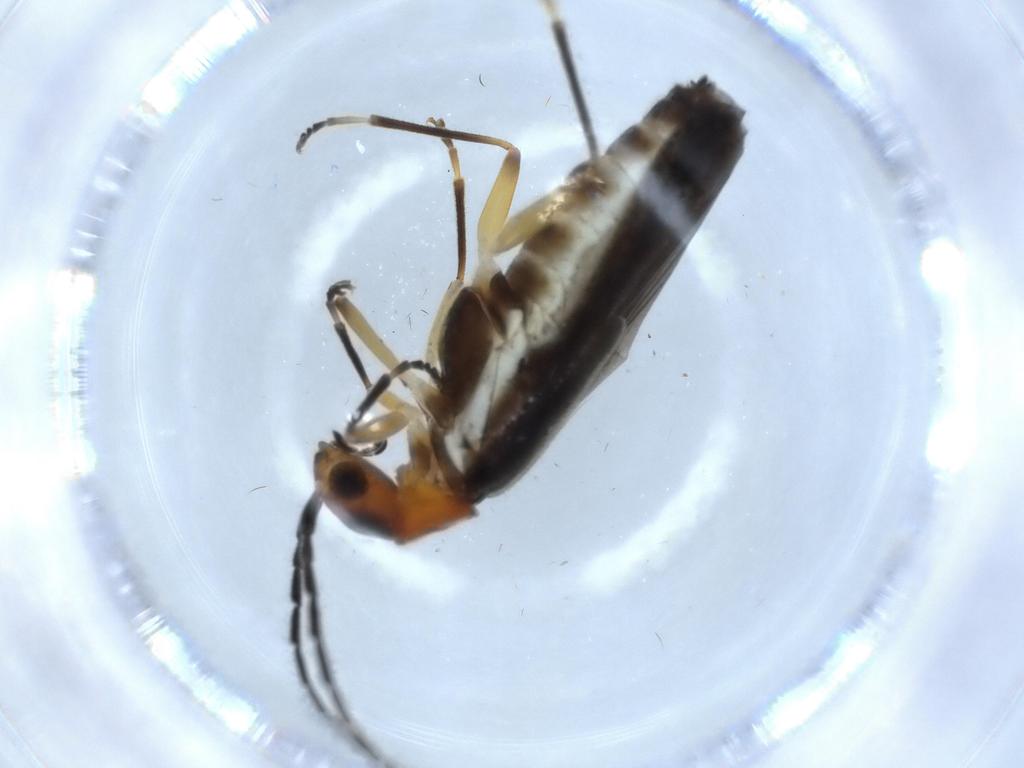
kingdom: Animalia
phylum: Arthropoda
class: Insecta
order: Coleoptera
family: Cantharidae
